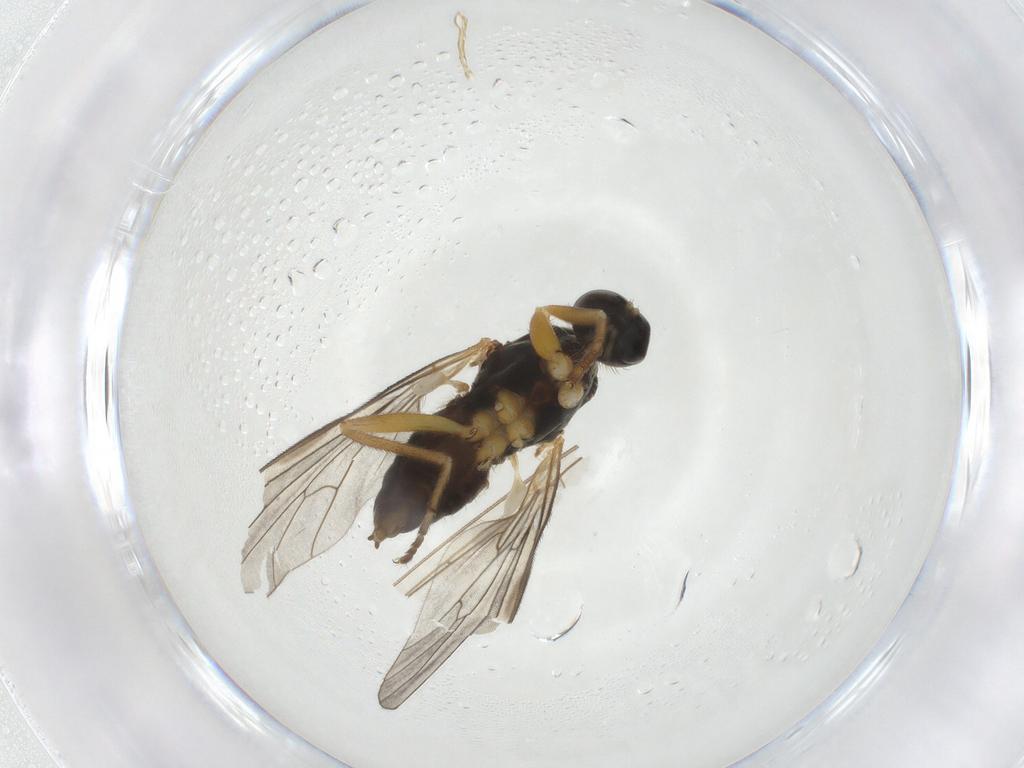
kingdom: Animalia
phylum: Arthropoda
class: Insecta
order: Diptera
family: Empididae
